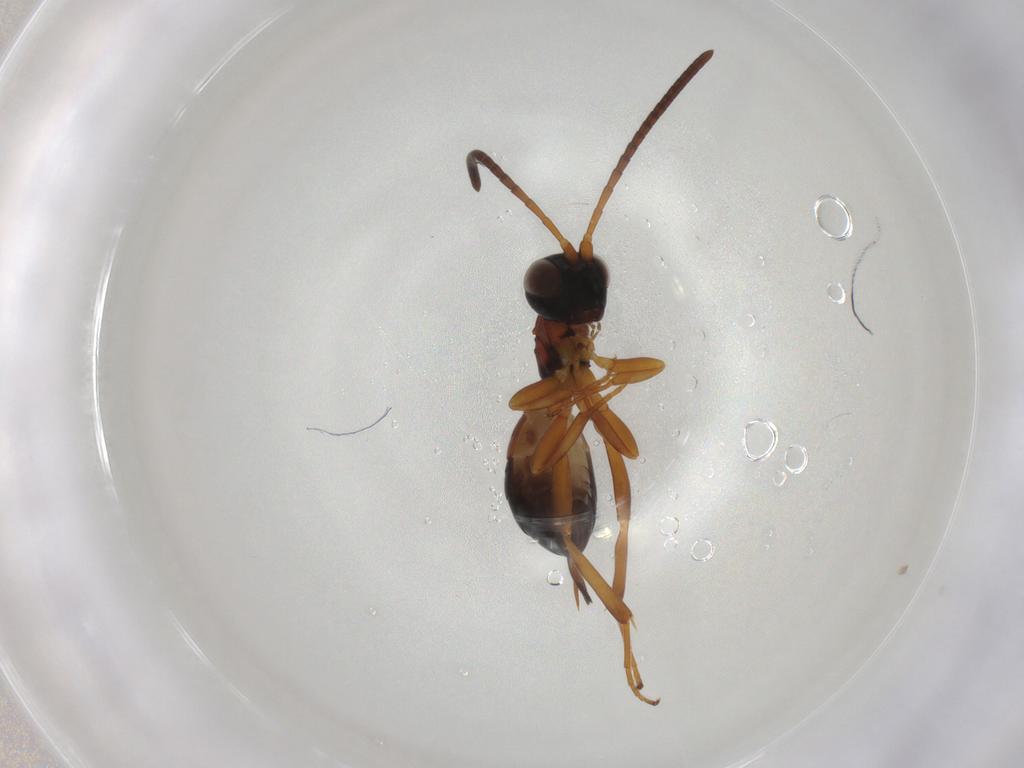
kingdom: Animalia
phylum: Arthropoda
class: Insecta
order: Hymenoptera
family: Braconidae
